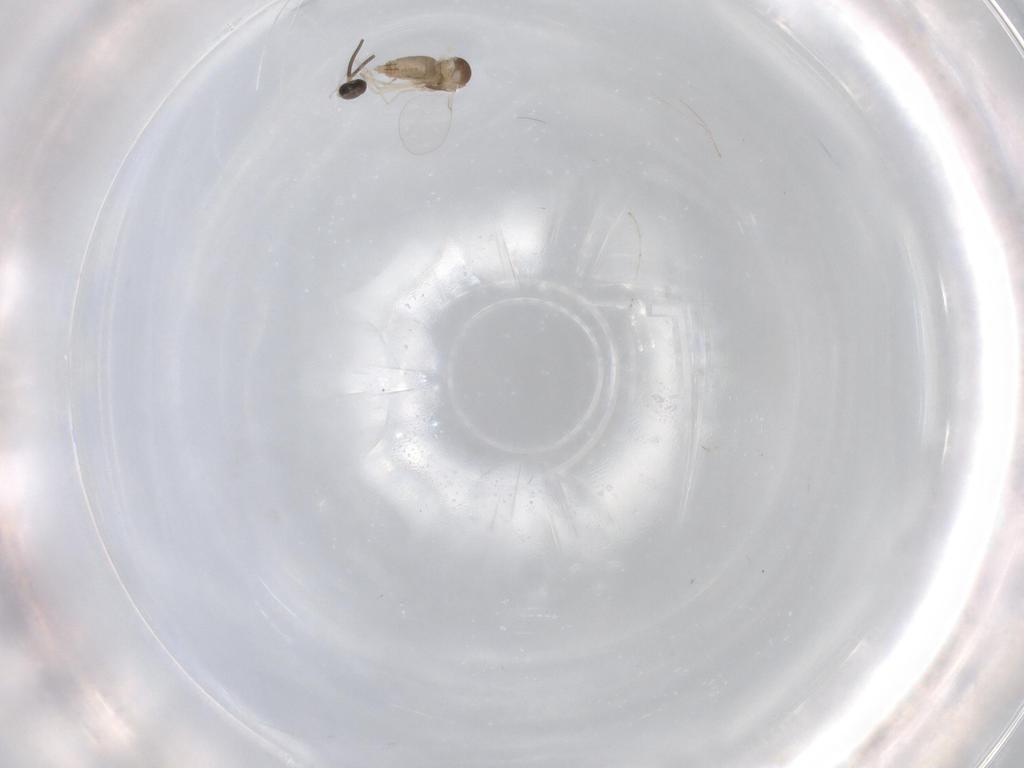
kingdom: Animalia
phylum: Arthropoda
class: Insecta
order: Diptera
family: Cecidomyiidae
